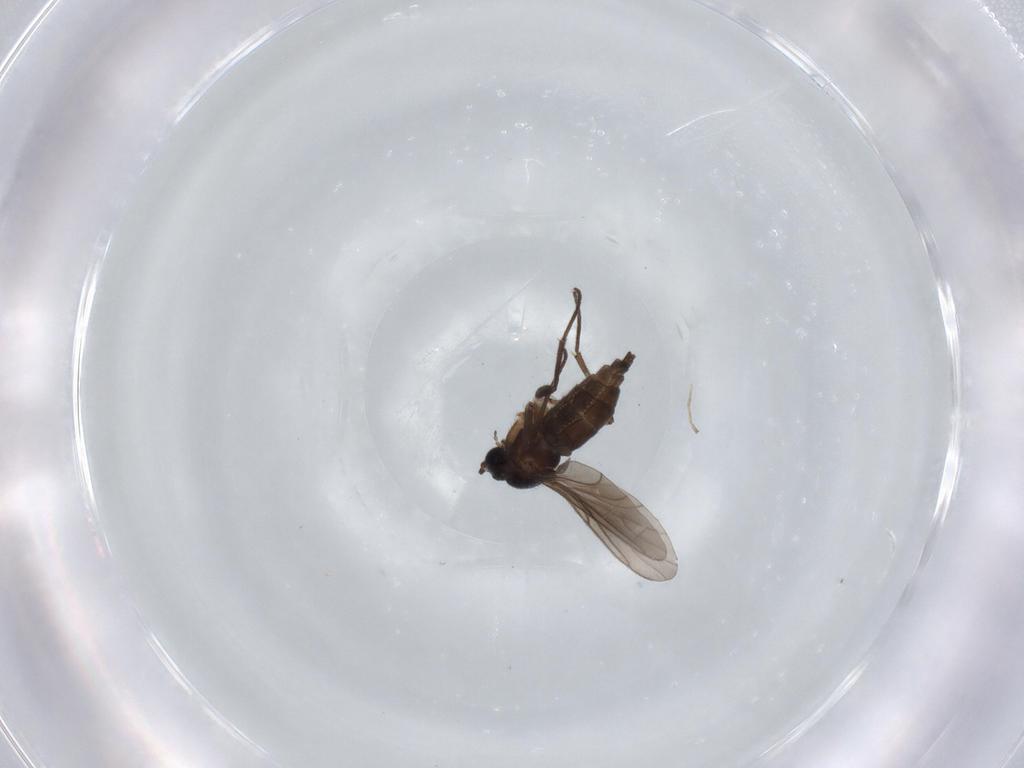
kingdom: Animalia
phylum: Arthropoda
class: Insecta
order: Diptera
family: Sciaridae
